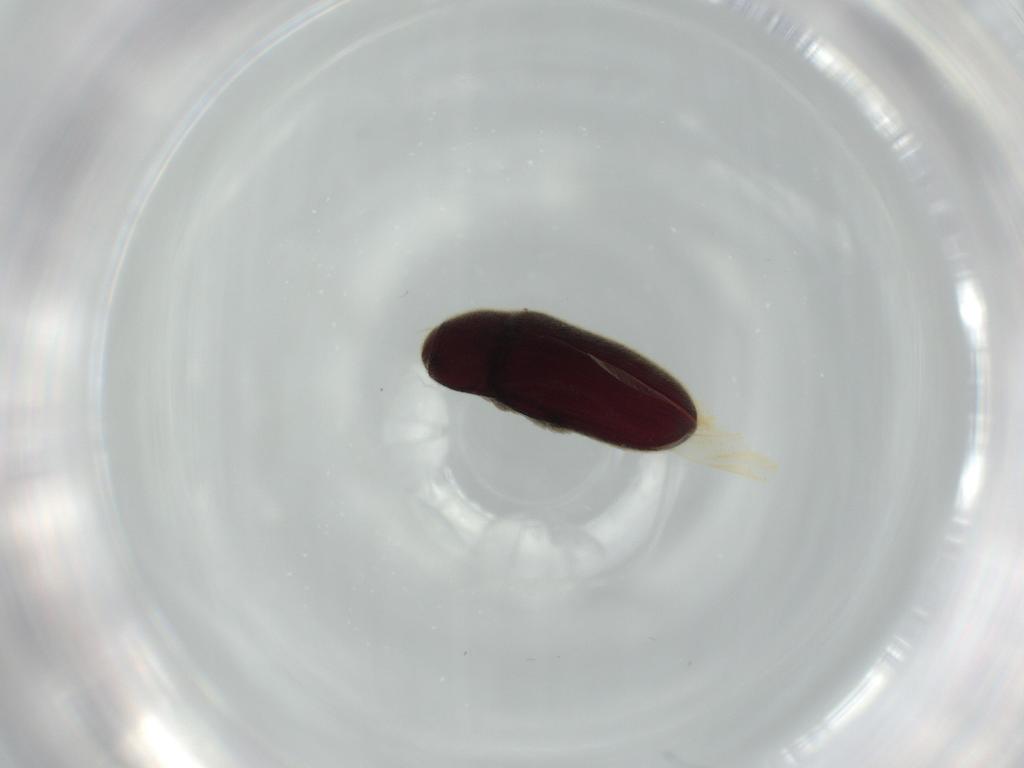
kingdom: Animalia
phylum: Arthropoda
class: Insecta
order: Coleoptera
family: Throscidae
